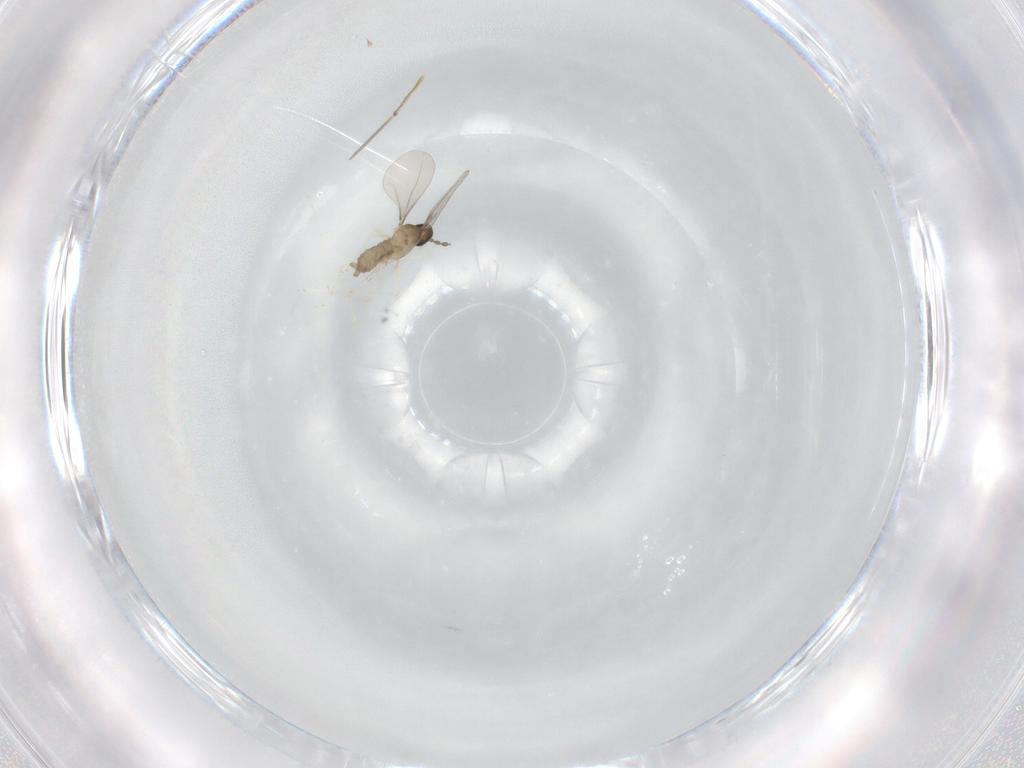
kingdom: Animalia
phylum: Arthropoda
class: Insecta
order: Diptera
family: Cecidomyiidae
